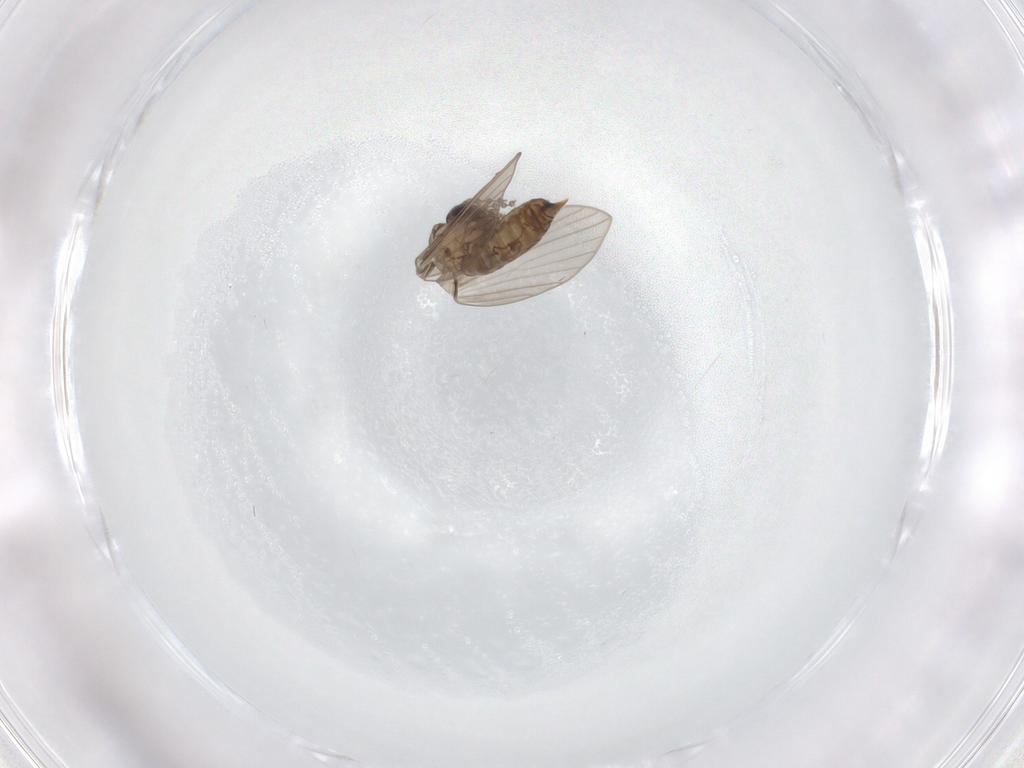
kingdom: Animalia
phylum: Arthropoda
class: Insecta
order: Diptera
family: Psychodidae
